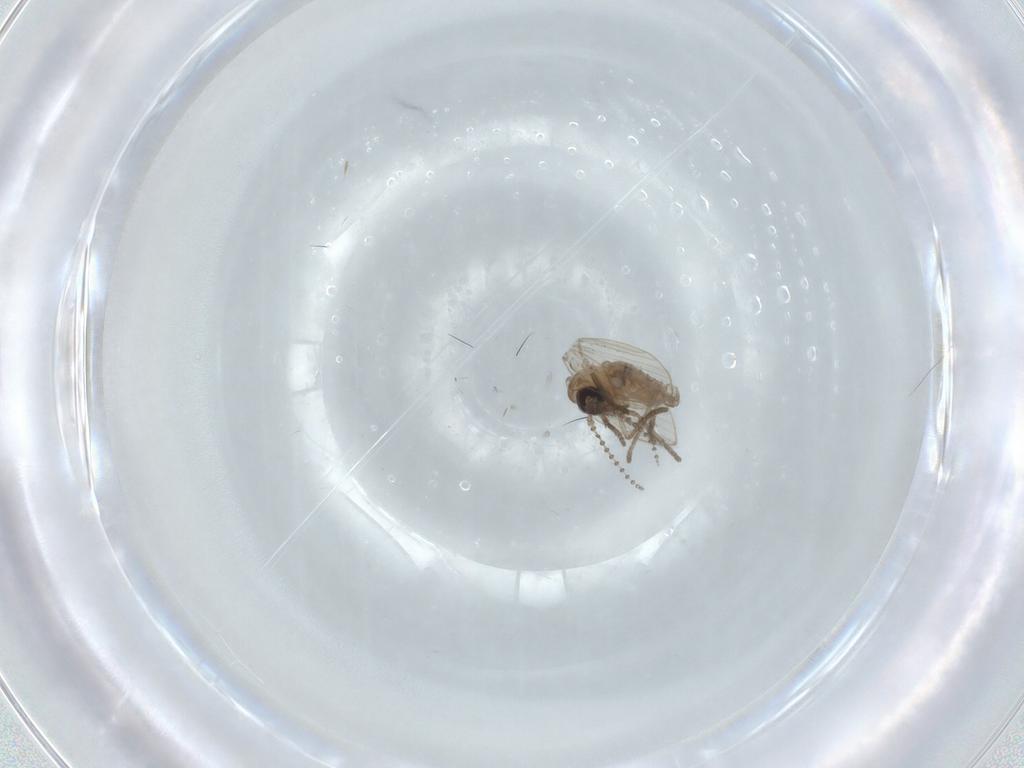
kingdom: Animalia
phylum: Arthropoda
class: Insecta
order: Diptera
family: Psychodidae
